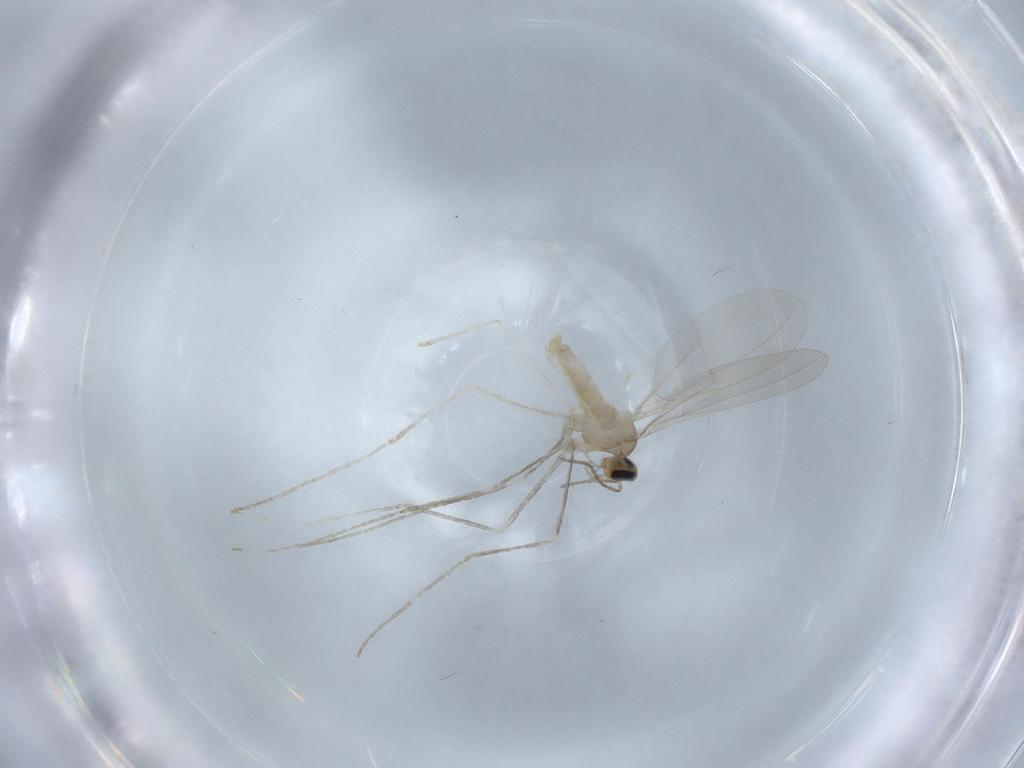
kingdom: Animalia
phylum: Arthropoda
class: Insecta
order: Diptera
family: Cecidomyiidae
